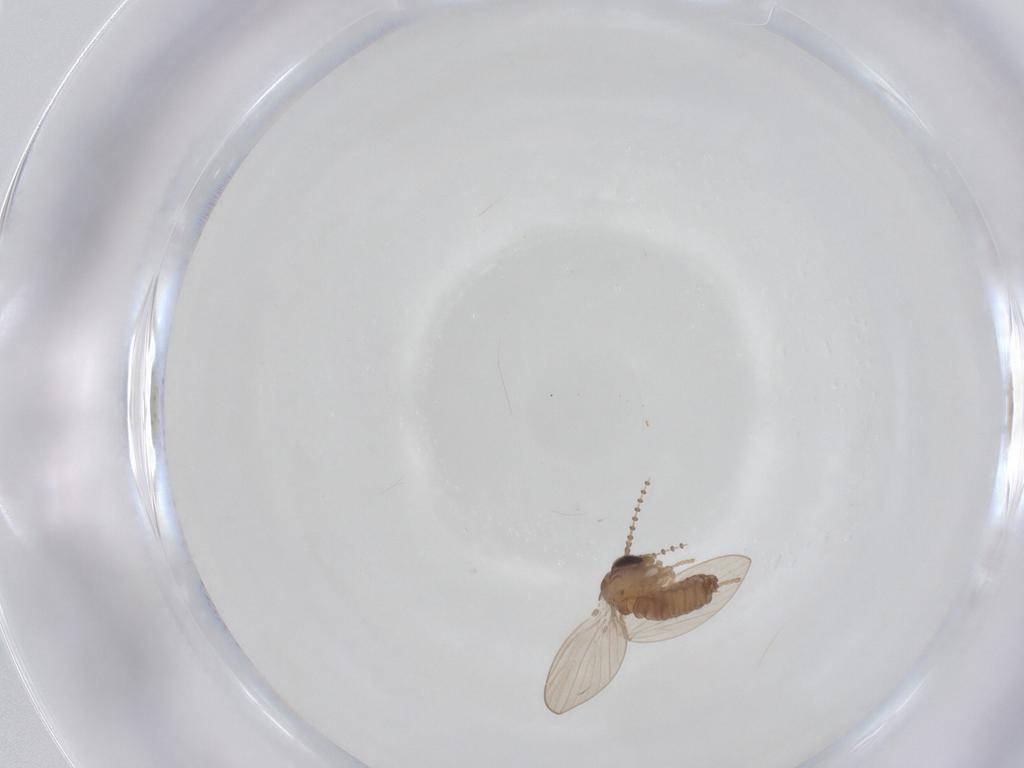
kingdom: Animalia
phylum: Arthropoda
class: Insecta
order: Diptera
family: Psychodidae
